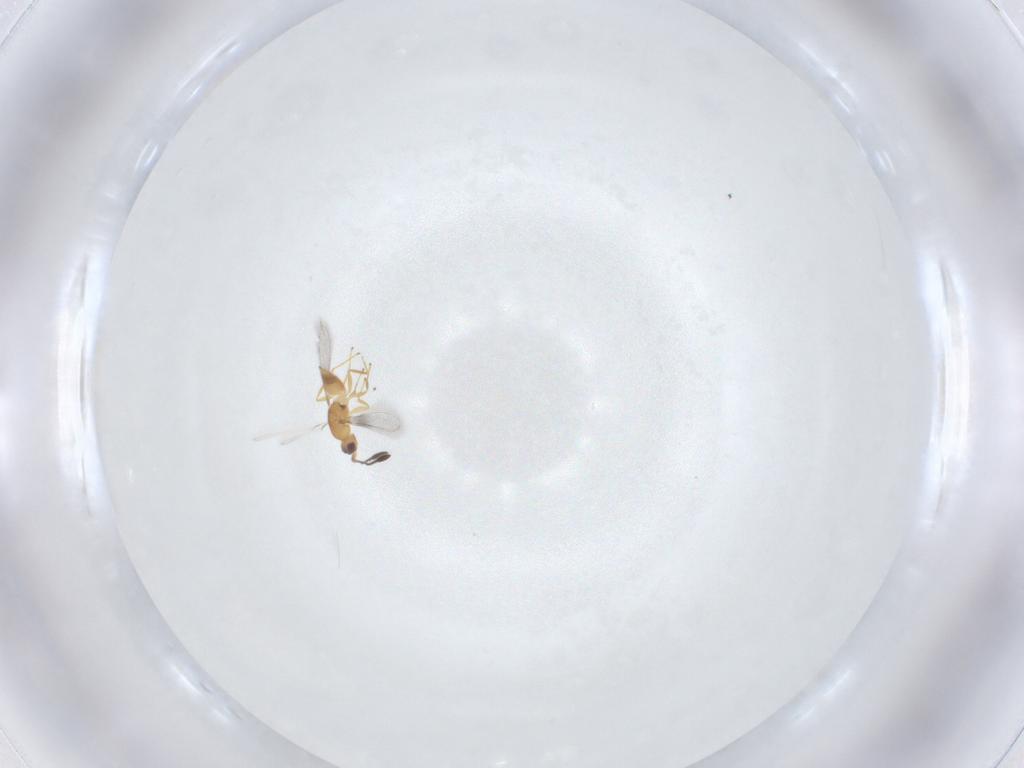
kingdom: Animalia
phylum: Arthropoda
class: Insecta
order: Hymenoptera
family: Mymaridae
